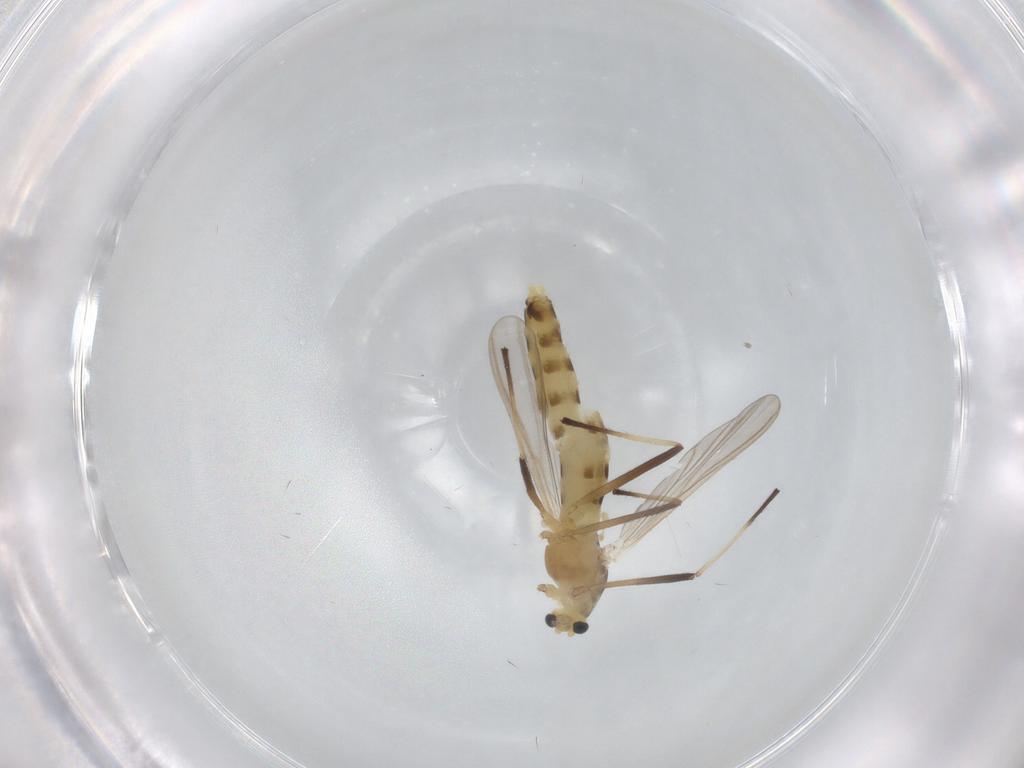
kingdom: Animalia
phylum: Arthropoda
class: Insecta
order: Diptera
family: Chironomidae
